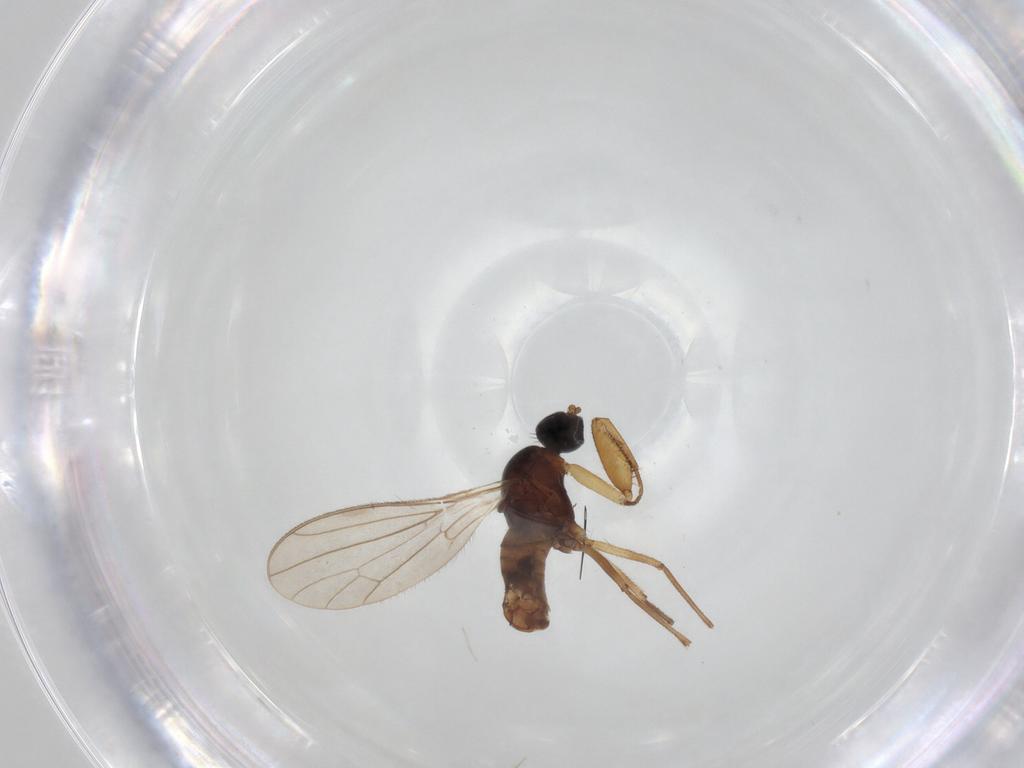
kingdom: Animalia
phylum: Arthropoda
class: Insecta
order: Diptera
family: Empididae
